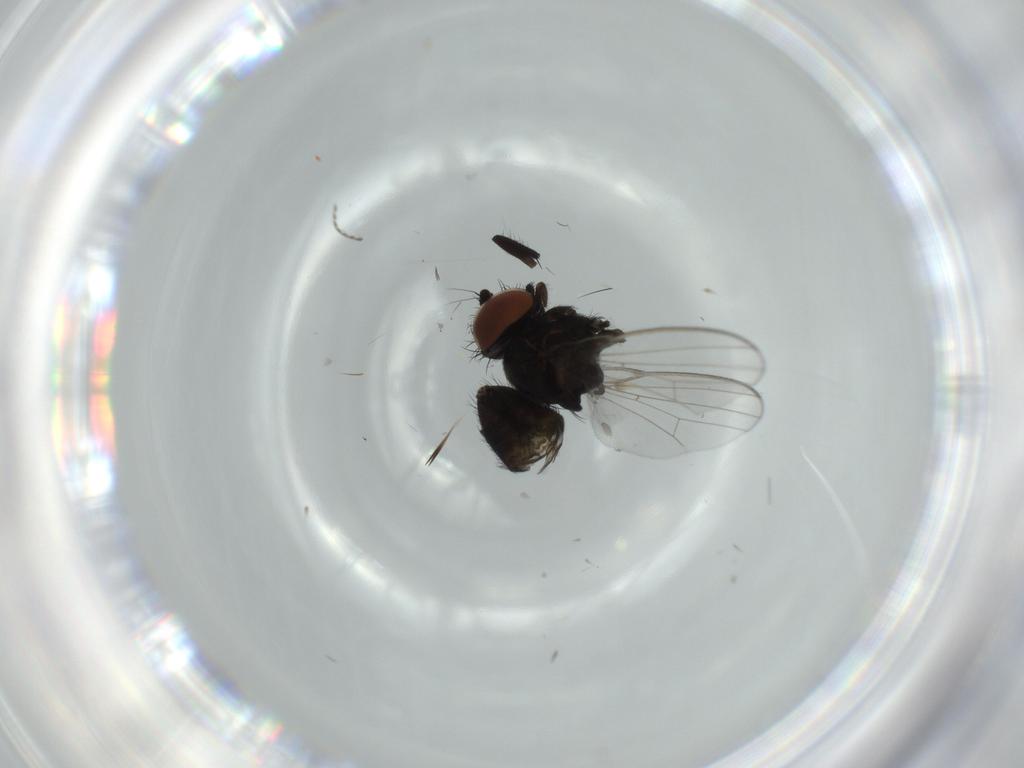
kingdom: Animalia
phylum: Arthropoda
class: Insecta
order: Diptera
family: Milichiidae
